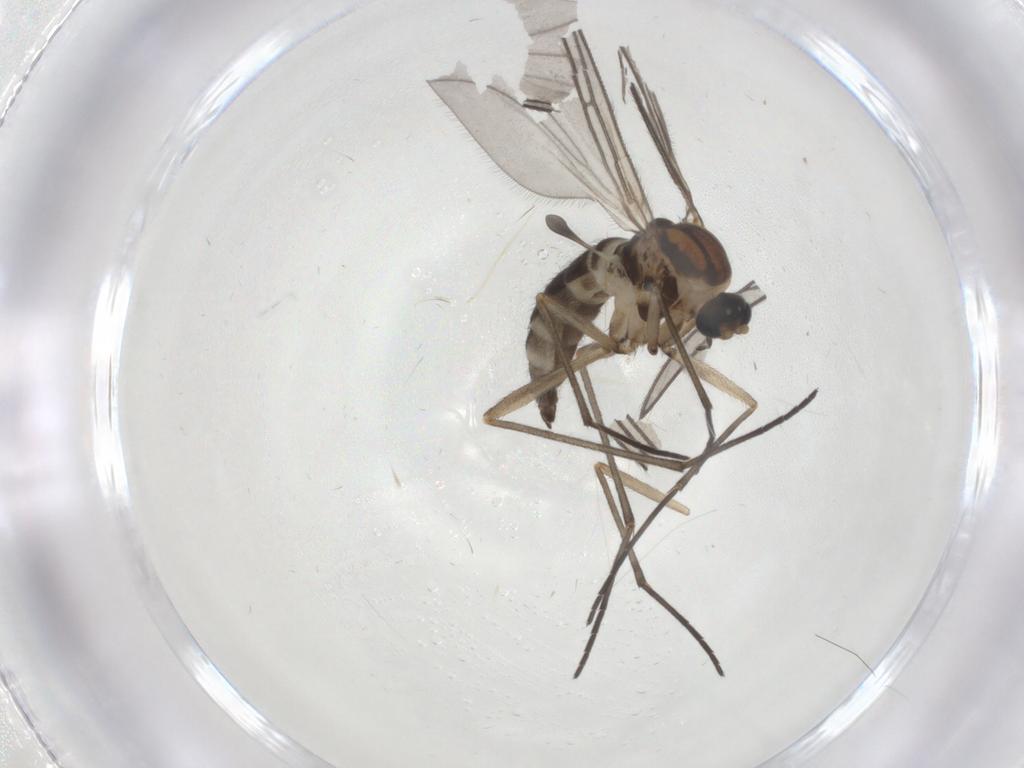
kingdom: Animalia
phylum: Arthropoda
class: Insecta
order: Diptera
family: Sciaridae
